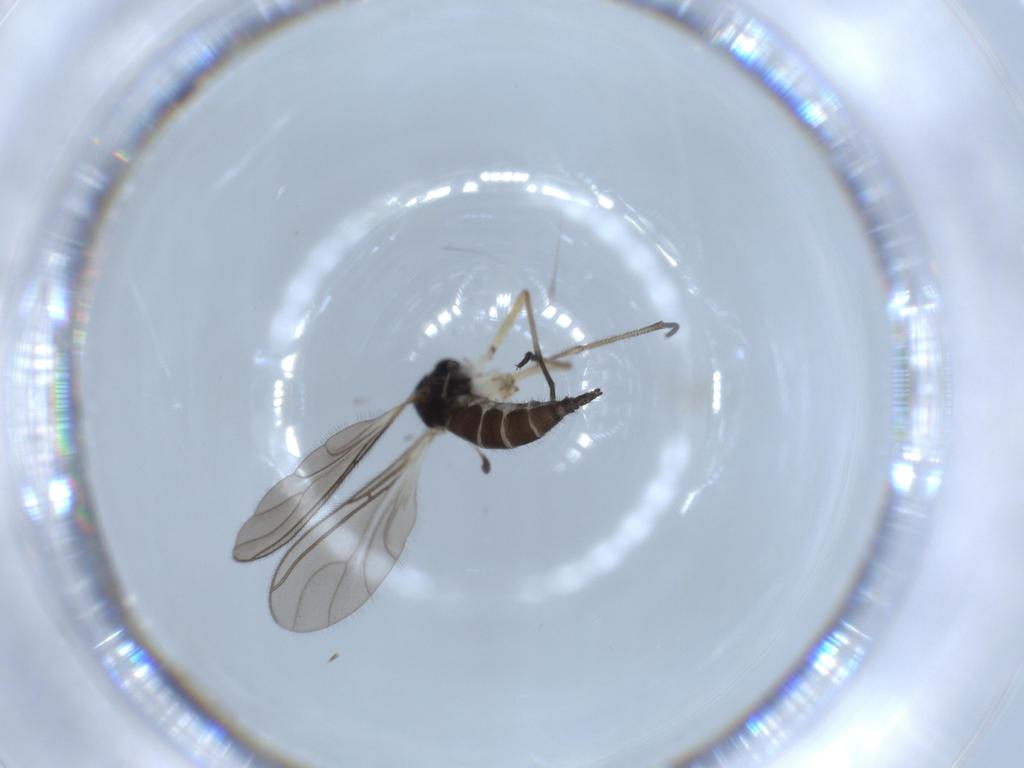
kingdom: Animalia
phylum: Arthropoda
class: Insecta
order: Diptera
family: Sciaridae
